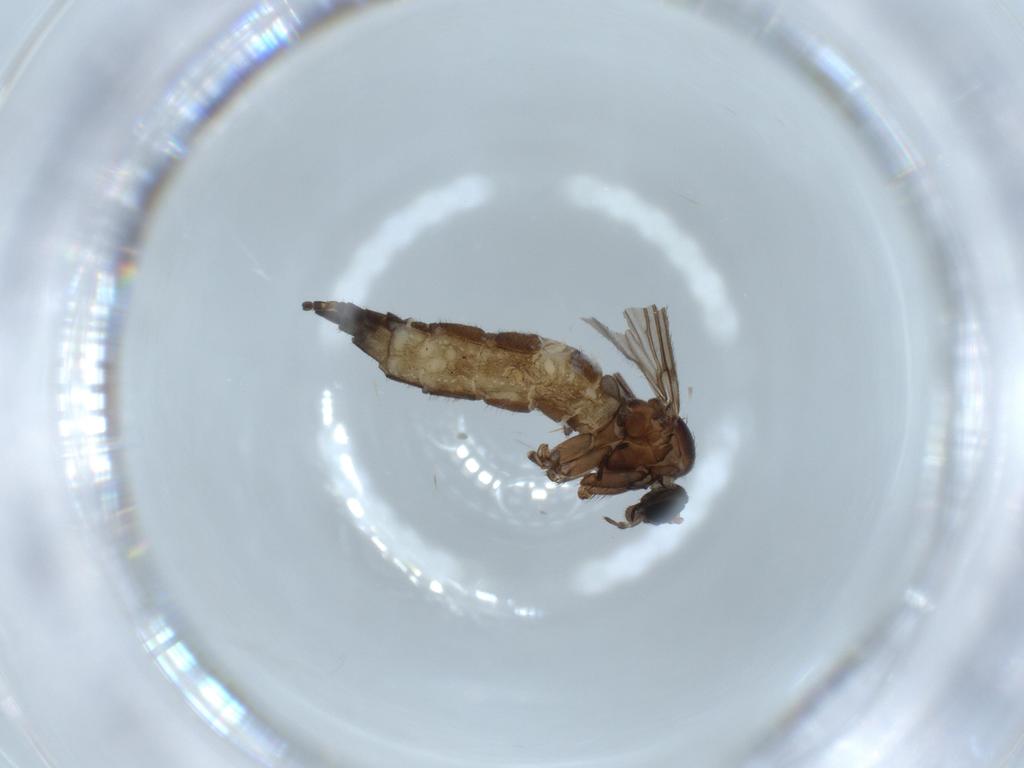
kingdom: Animalia
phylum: Arthropoda
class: Insecta
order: Diptera
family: Sciaridae
